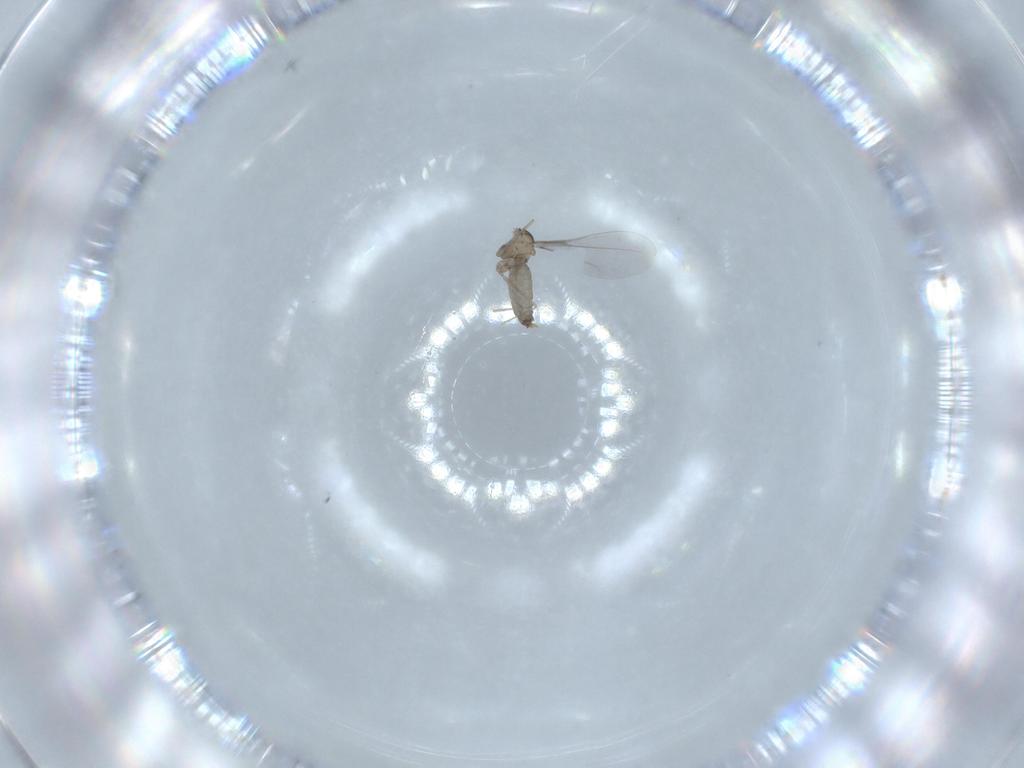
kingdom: Animalia
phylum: Arthropoda
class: Insecta
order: Diptera
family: Cecidomyiidae
